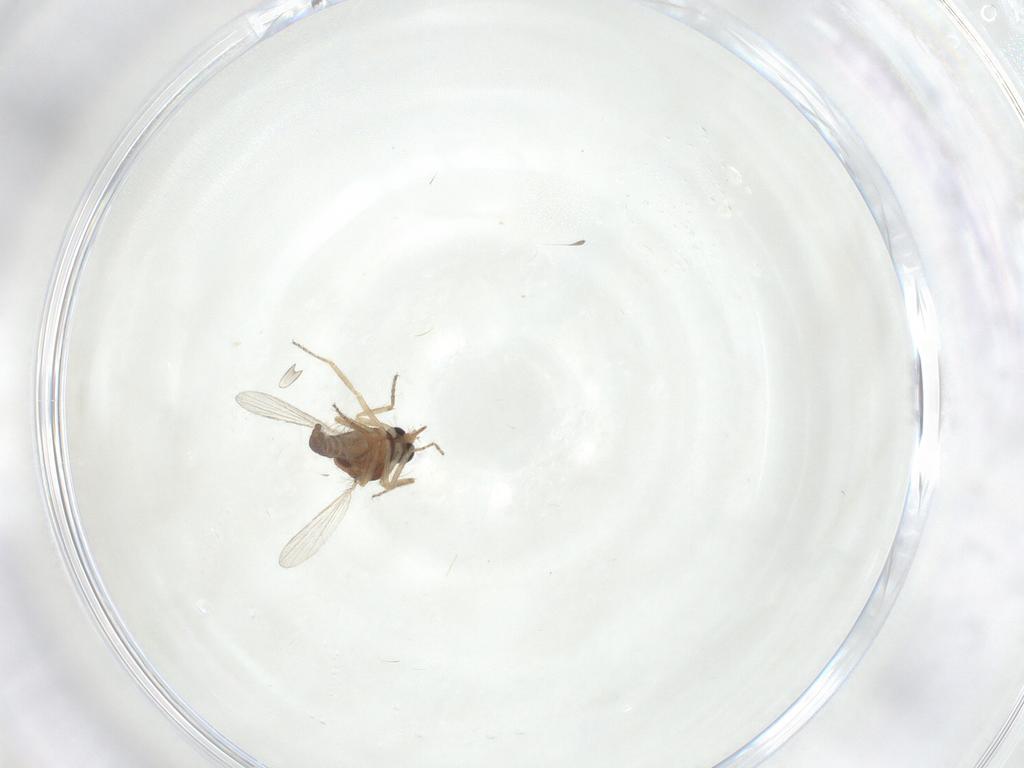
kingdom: Animalia
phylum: Arthropoda
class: Insecta
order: Diptera
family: Ceratopogonidae
